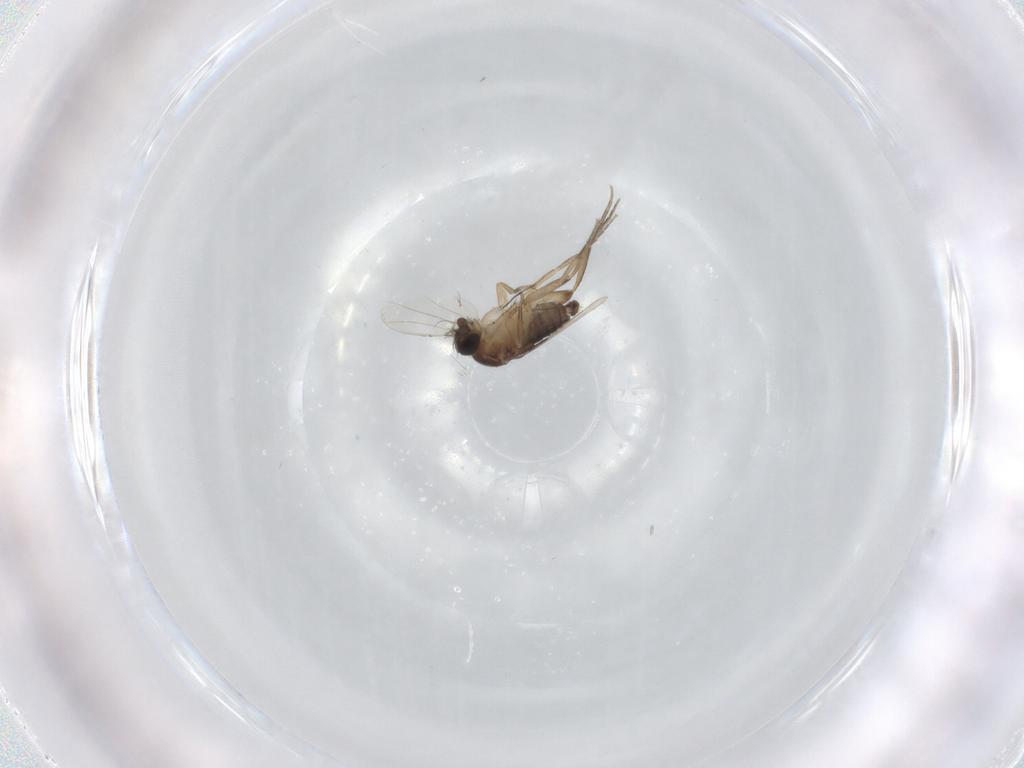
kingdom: Animalia
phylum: Arthropoda
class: Insecta
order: Diptera
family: Phoridae
